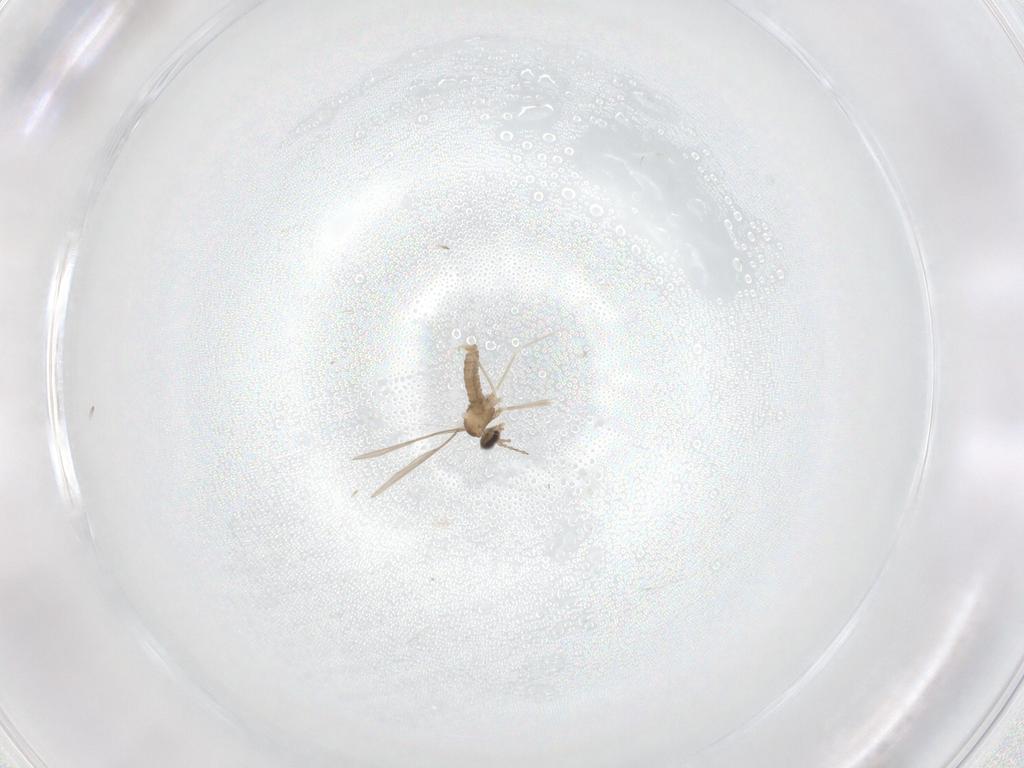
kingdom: Animalia
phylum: Arthropoda
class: Insecta
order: Diptera
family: Cecidomyiidae
